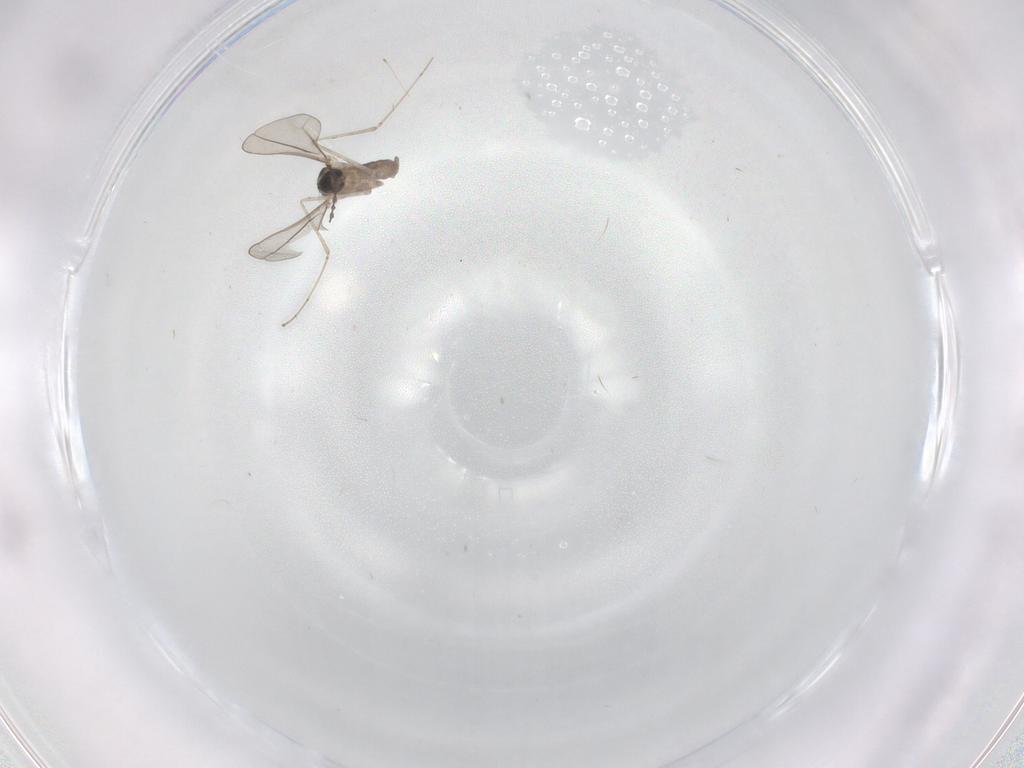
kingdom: Animalia
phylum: Arthropoda
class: Insecta
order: Diptera
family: Cecidomyiidae
